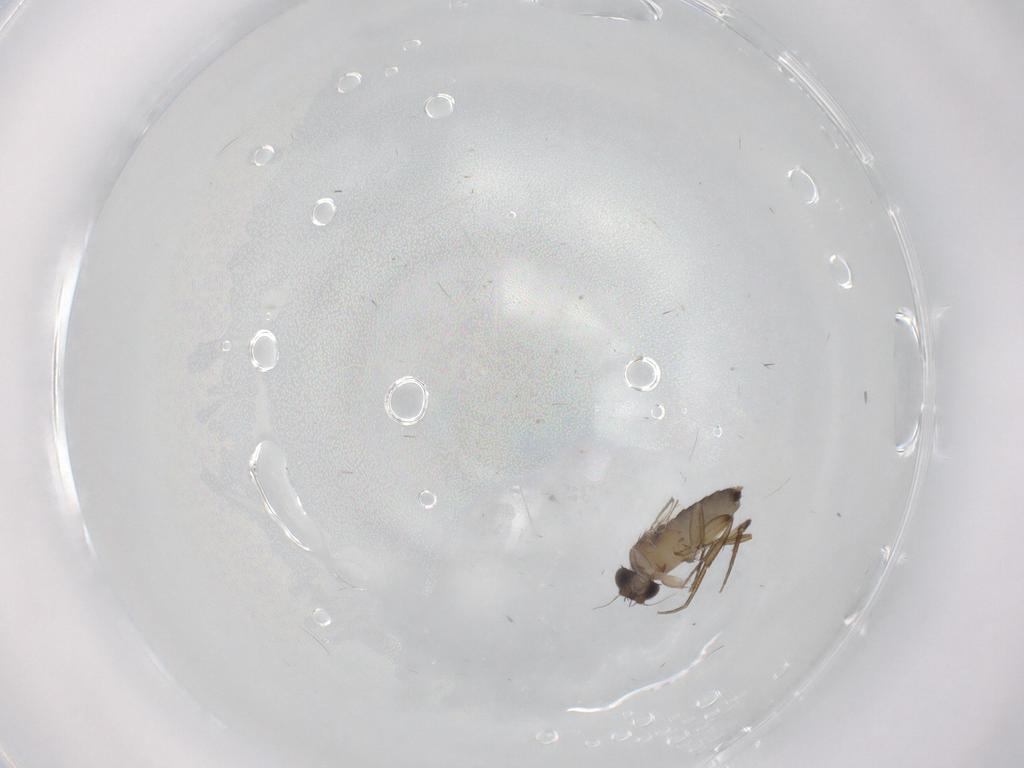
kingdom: Animalia
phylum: Arthropoda
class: Insecta
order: Diptera
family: Phoridae
